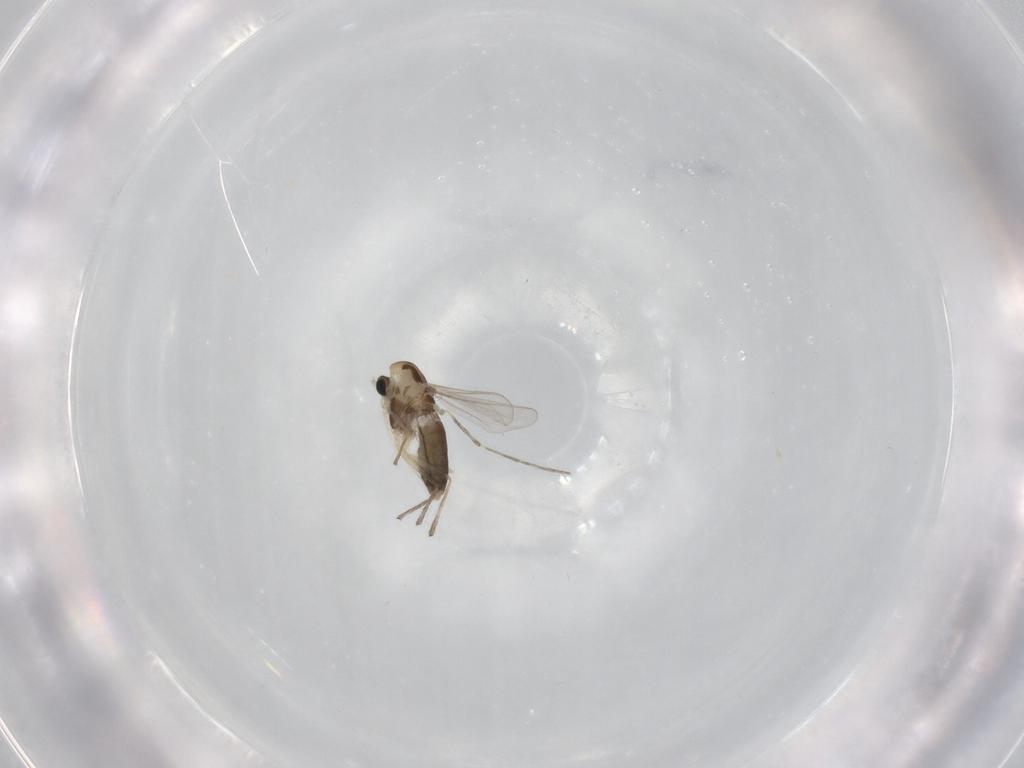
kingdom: Animalia
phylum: Arthropoda
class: Insecta
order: Diptera
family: Chironomidae
